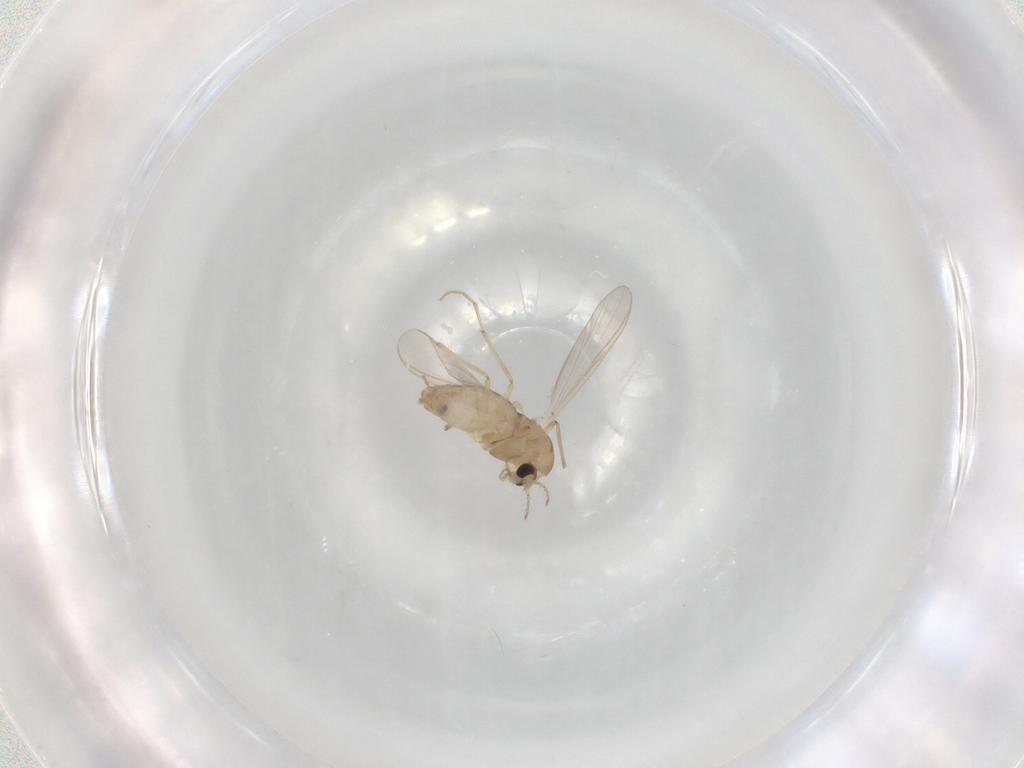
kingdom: Animalia
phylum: Arthropoda
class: Insecta
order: Diptera
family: Chironomidae
